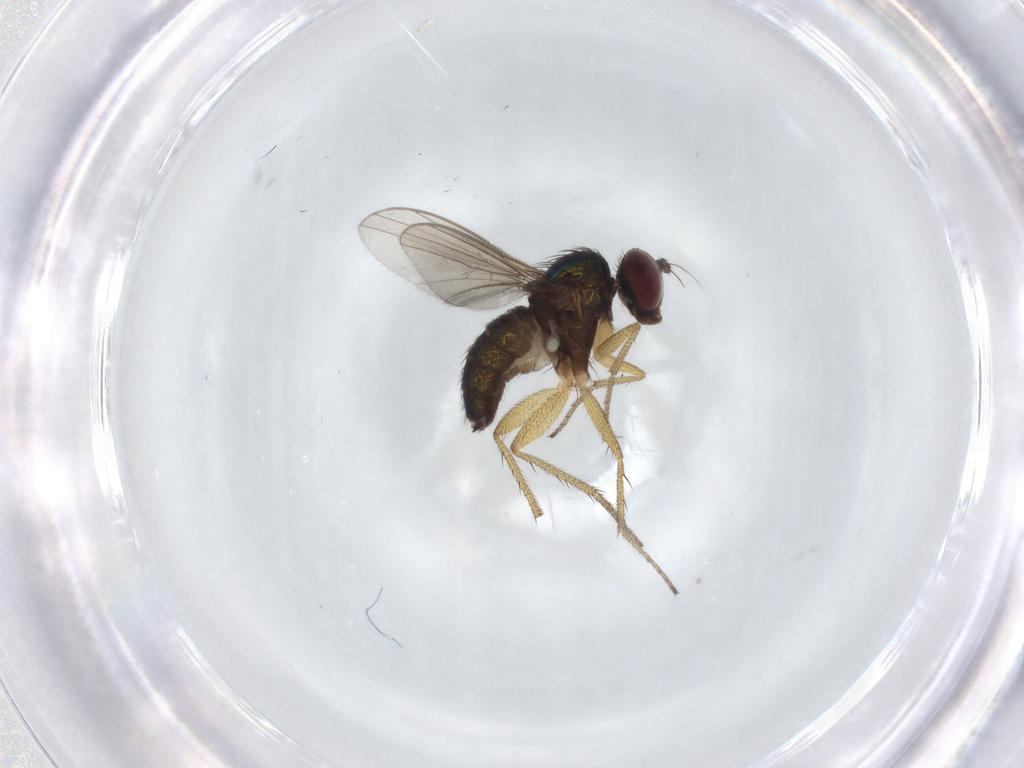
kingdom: Animalia
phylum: Arthropoda
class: Insecta
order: Diptera
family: Dolichopodidae
